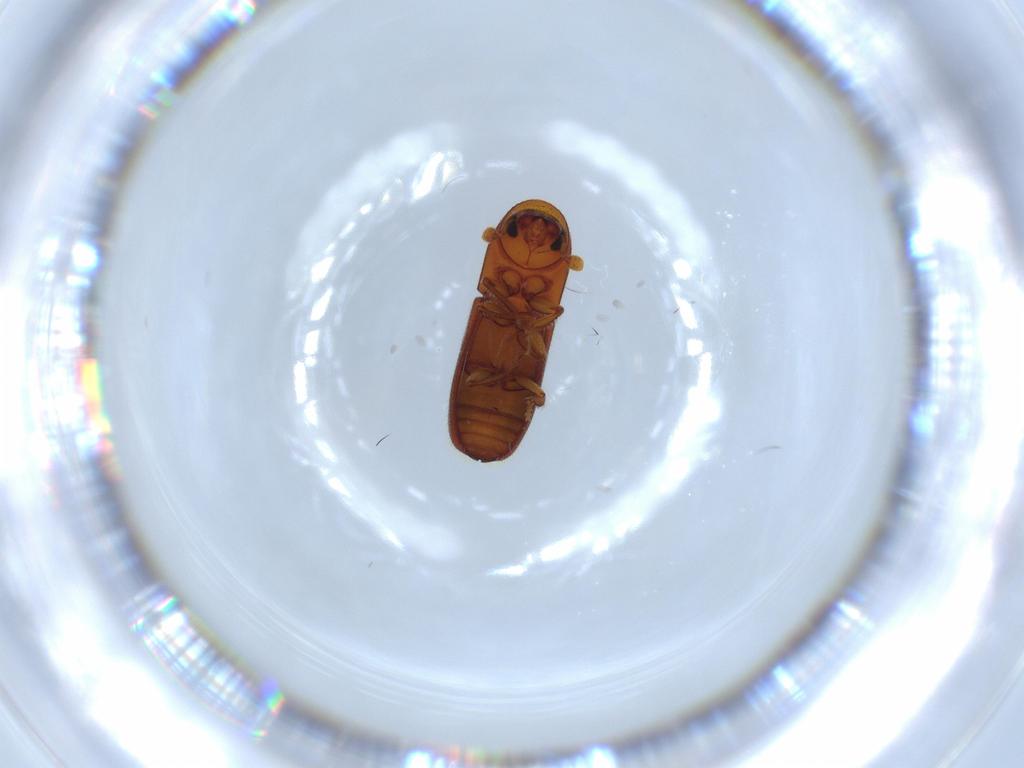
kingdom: Animalia
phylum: Arthropoda
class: Insecta
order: Coleoptera
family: Curculionidae
